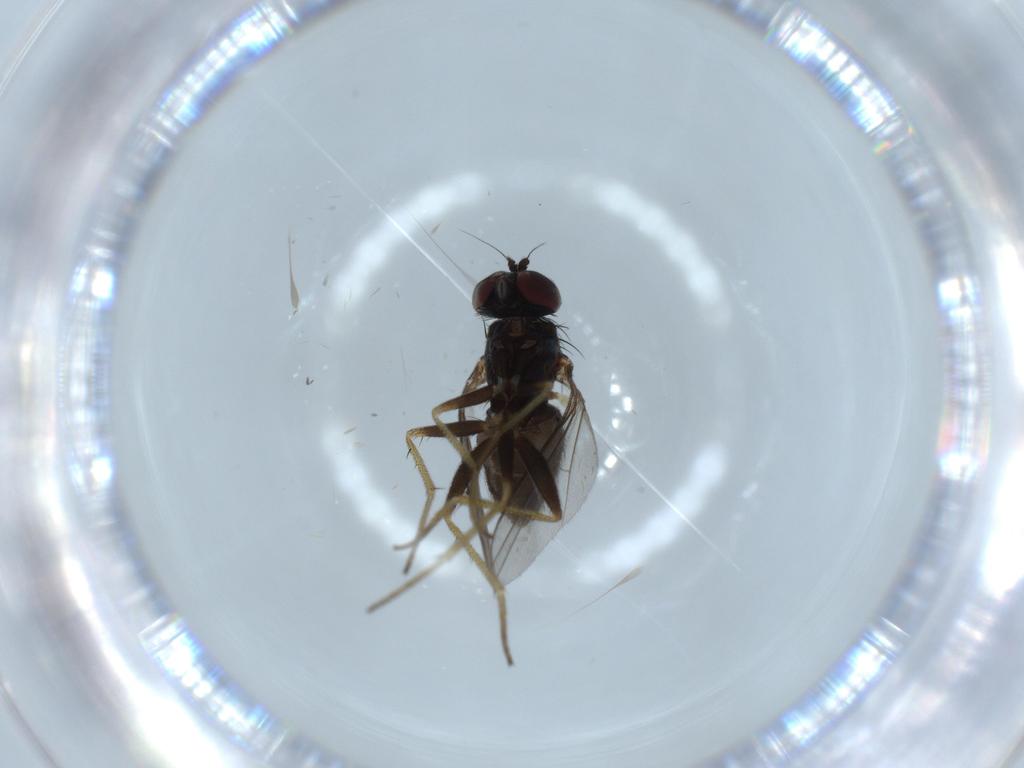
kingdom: Animalia
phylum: Arthropoda
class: Insecta
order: Diptera
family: Dolichopodidae
